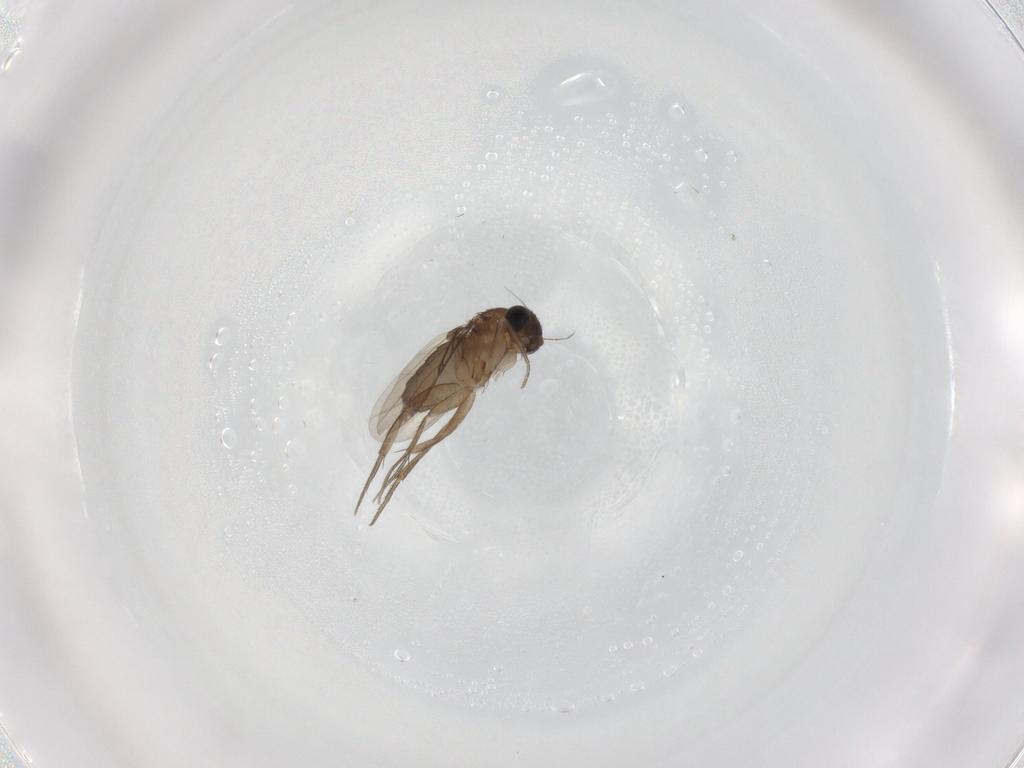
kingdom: Animalia
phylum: Arthropoda
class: Insecta
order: Diptera
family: Phoridae
